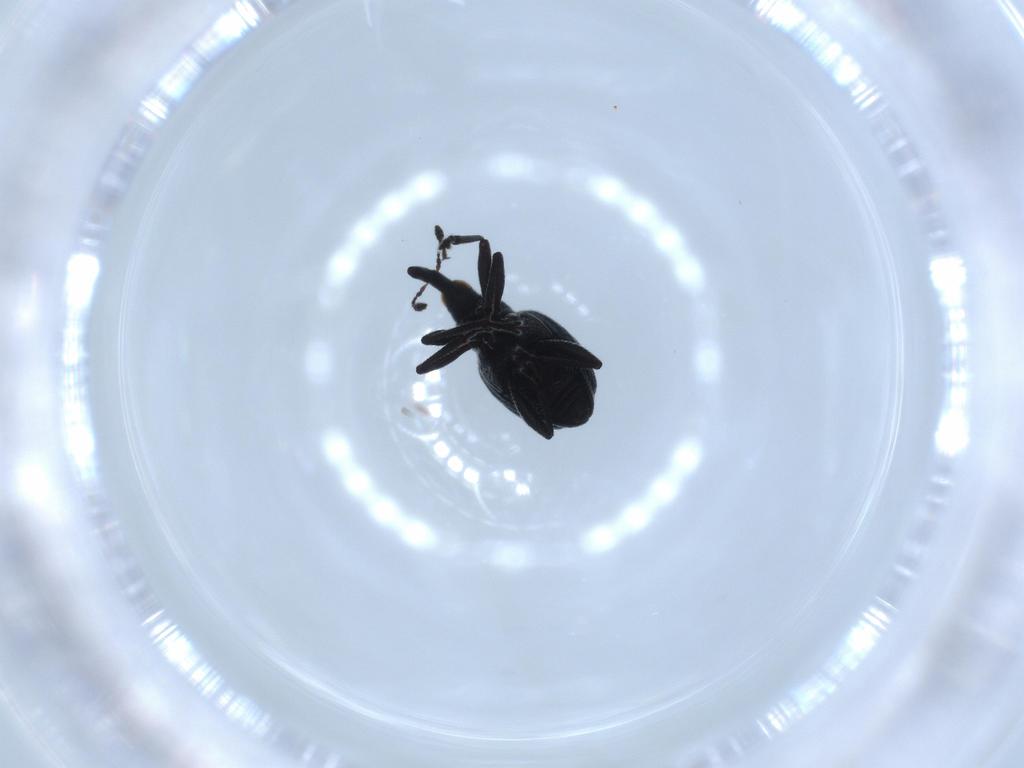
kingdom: Animalia
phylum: Arthropoda
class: Insecta
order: Coleoptera
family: Brentidae
